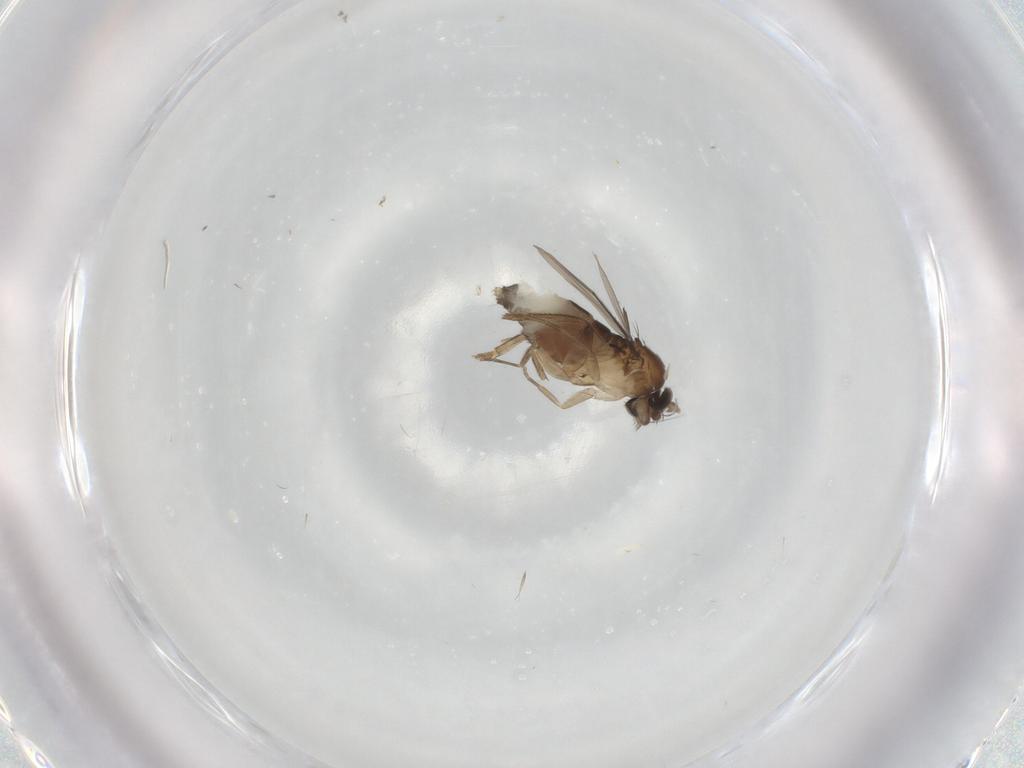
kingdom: Animalia
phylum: Arthropoda
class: Insecta
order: Diptera
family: Phoridae
